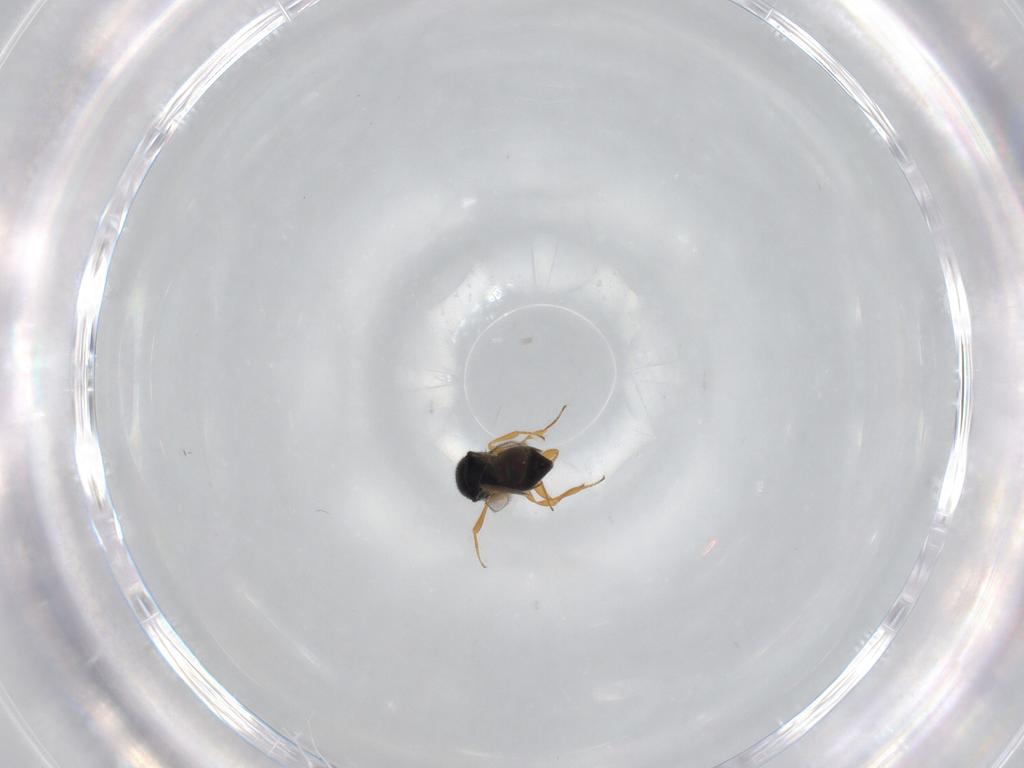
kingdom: Animalia
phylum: Arthropoda
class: Insecta
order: Hymenoptera
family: Scelionidae
